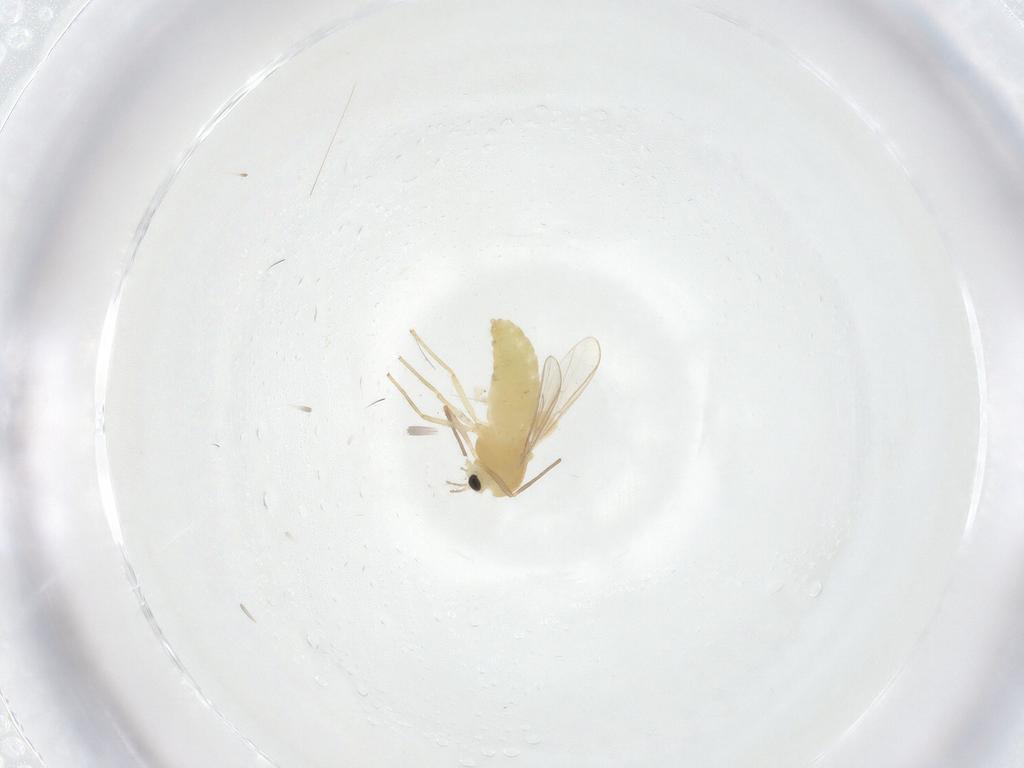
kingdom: Animalia
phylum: Arthropoda
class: Insecta
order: Diptera
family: Chironomidae
